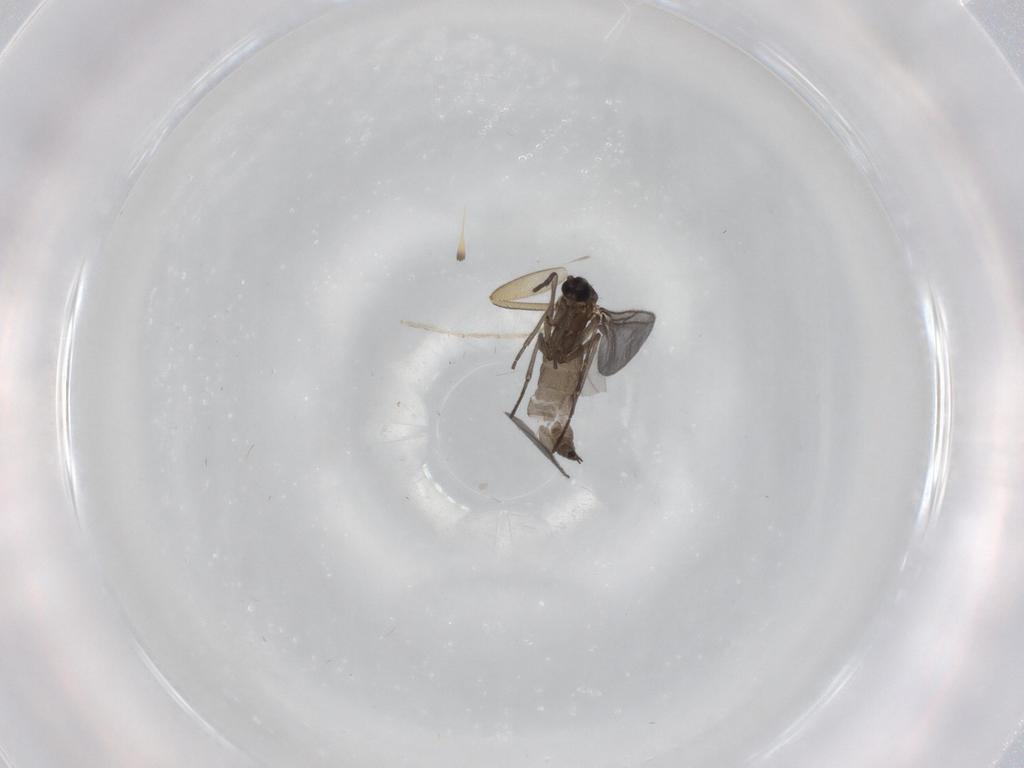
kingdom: Animalia
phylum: Arthropoda
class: Insecta
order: Diptera
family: Sciaridae
